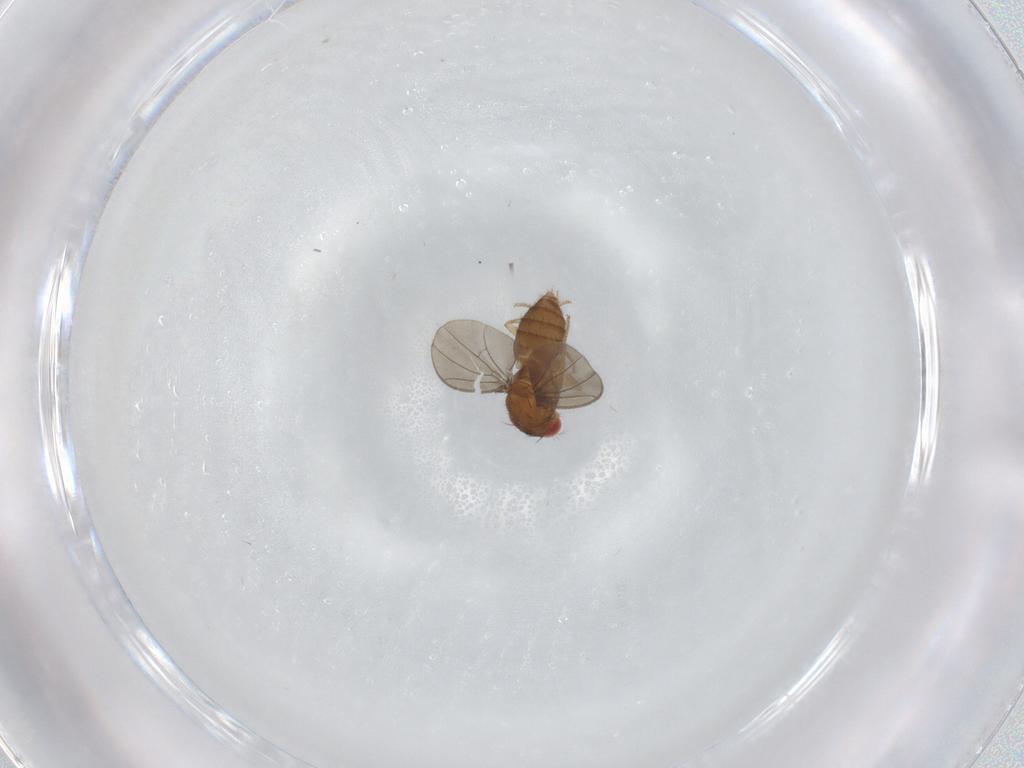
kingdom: Animalia
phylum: Arthropoda
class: Insecta
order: Diptera
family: Drosophilidae
